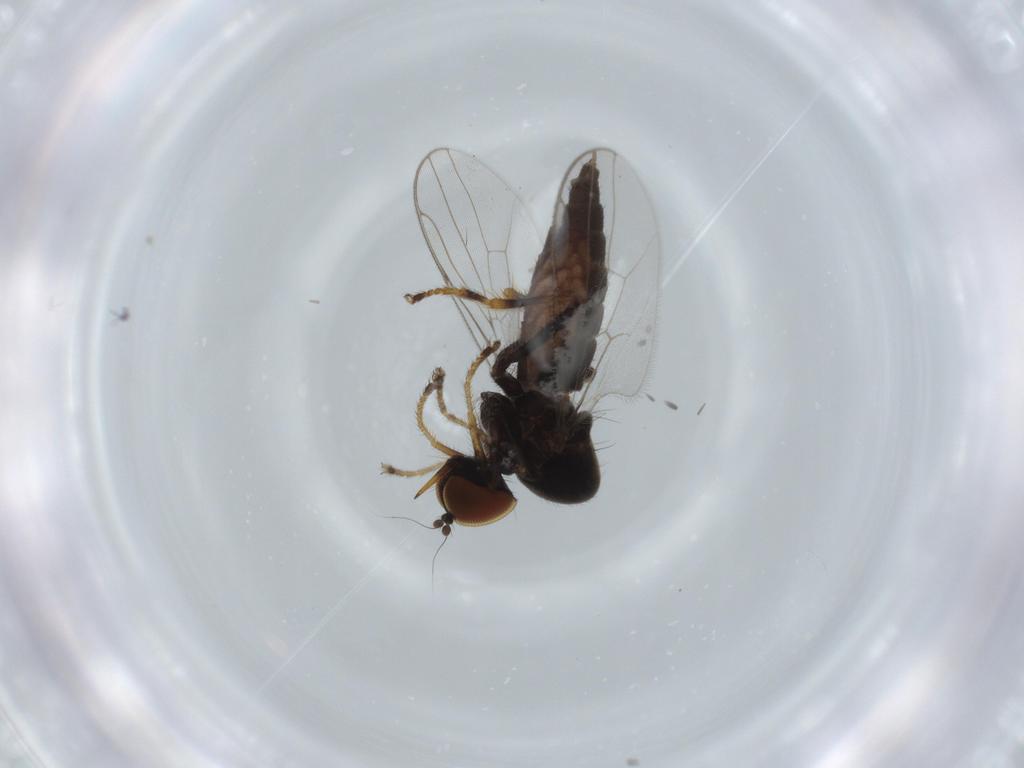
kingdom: Animalia
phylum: Arthropoda
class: Insecta
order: Diptera
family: Hybotidae
